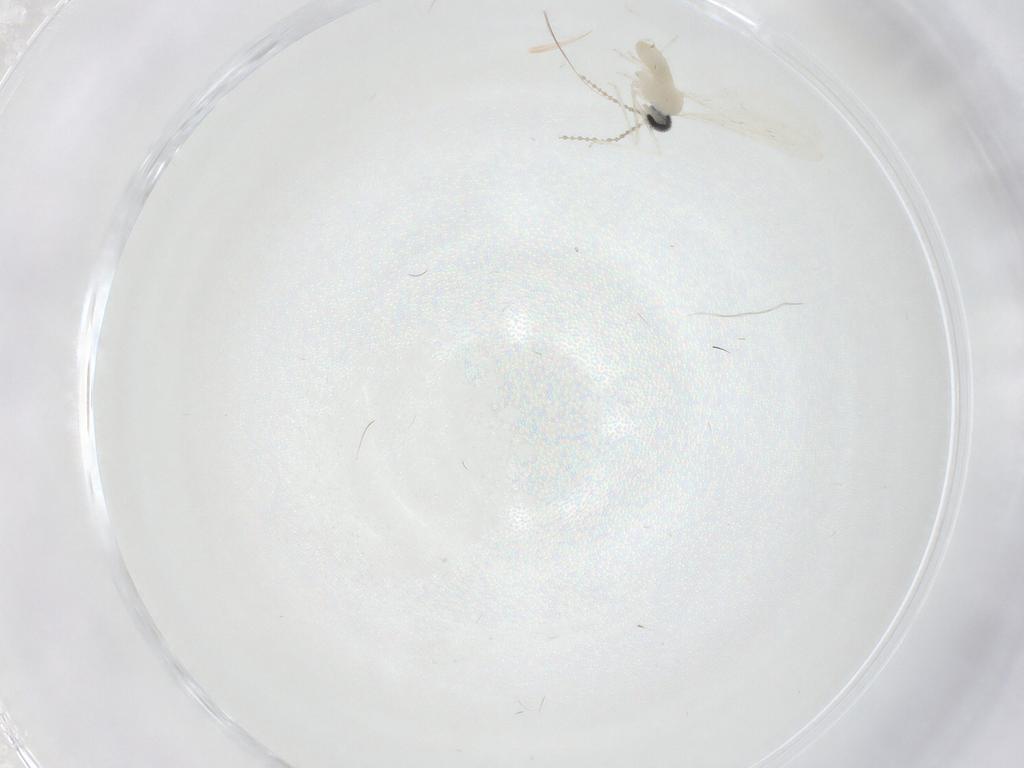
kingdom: Animalia
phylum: Arthropoda
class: Insecta
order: Diptera
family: Cecidomyiidae
